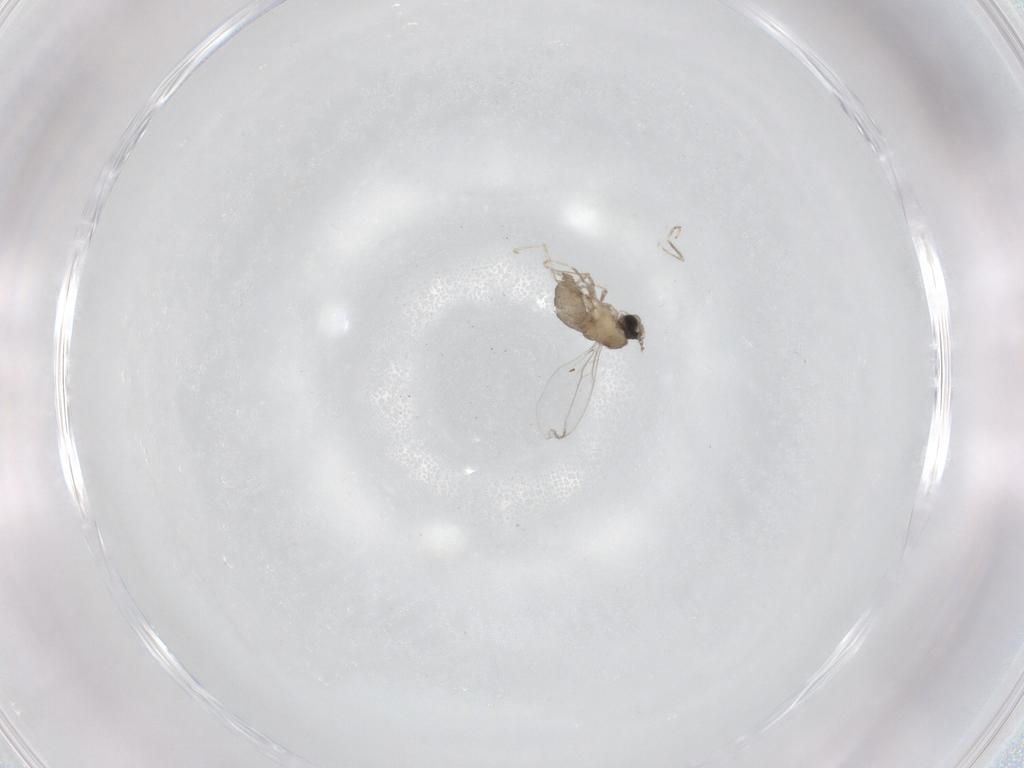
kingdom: Animalia
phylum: Arthropoda
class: Insecta
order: Diptera
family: Cecidomyiidae
